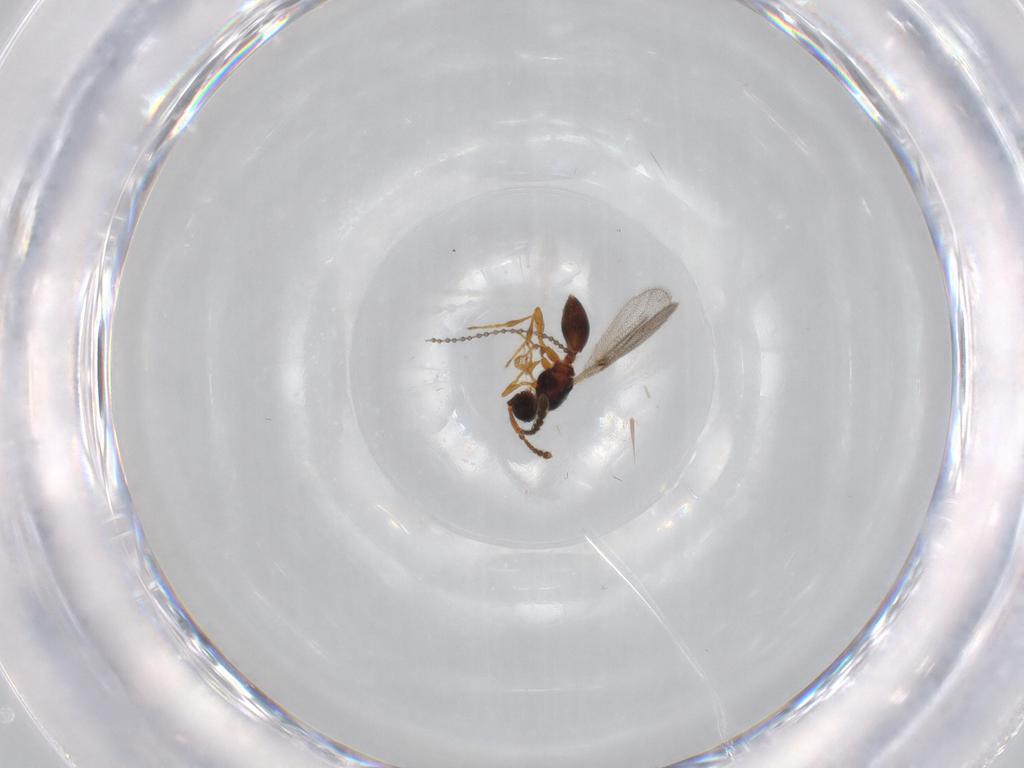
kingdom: Animalia
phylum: Arthropoda
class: Insecta
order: Hymenoptera
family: Diapriidae
